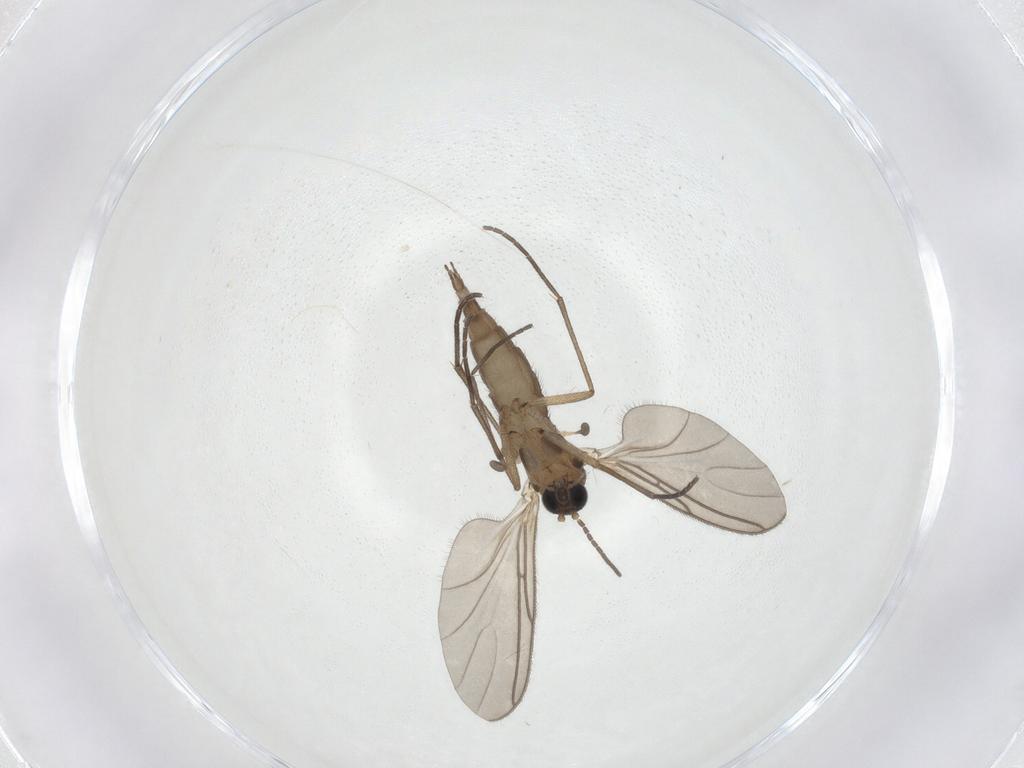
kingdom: Animalia
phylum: Arthropoda
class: Insecta
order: Diptera
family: Sciaridae
